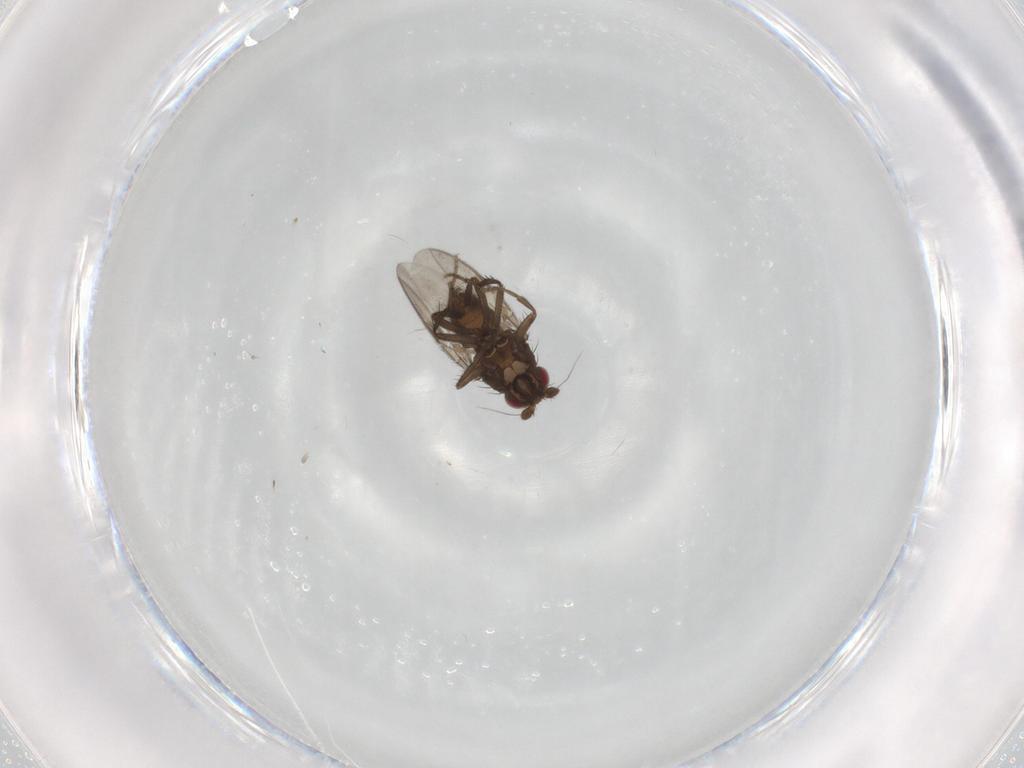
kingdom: Animalia
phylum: Arthropoda
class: Insecta
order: Diptera
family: Sphaeroceridae
